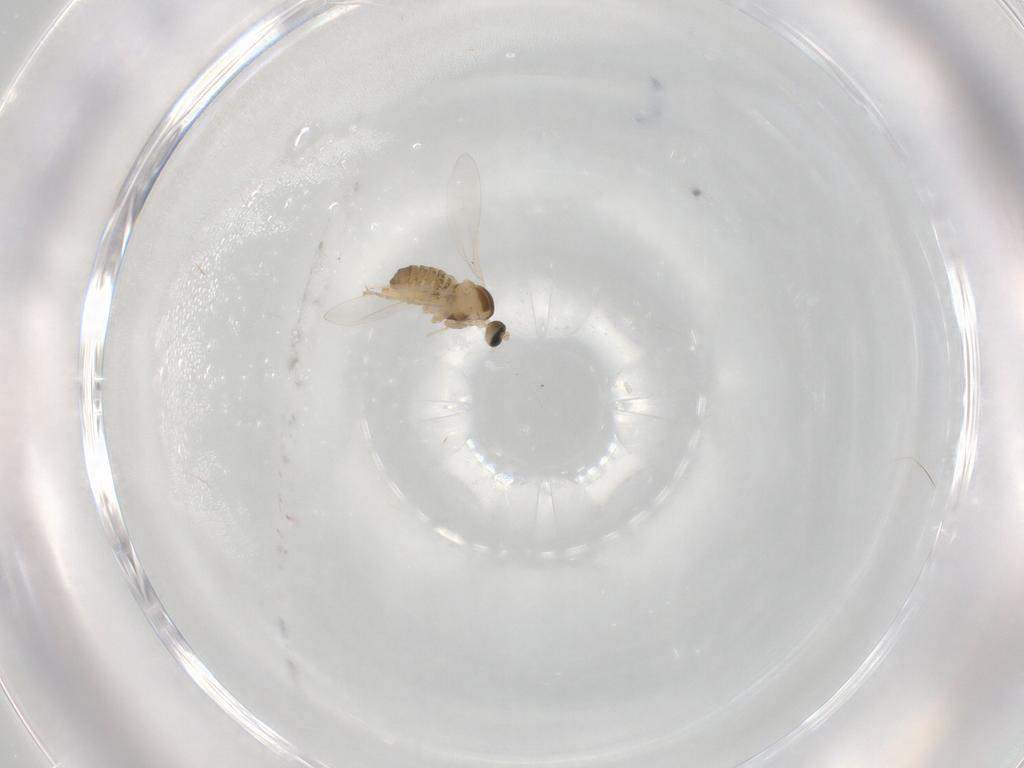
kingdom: Animalia
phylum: Arthropoda
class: Insecta
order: Diptera
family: Cecidomyiidae
